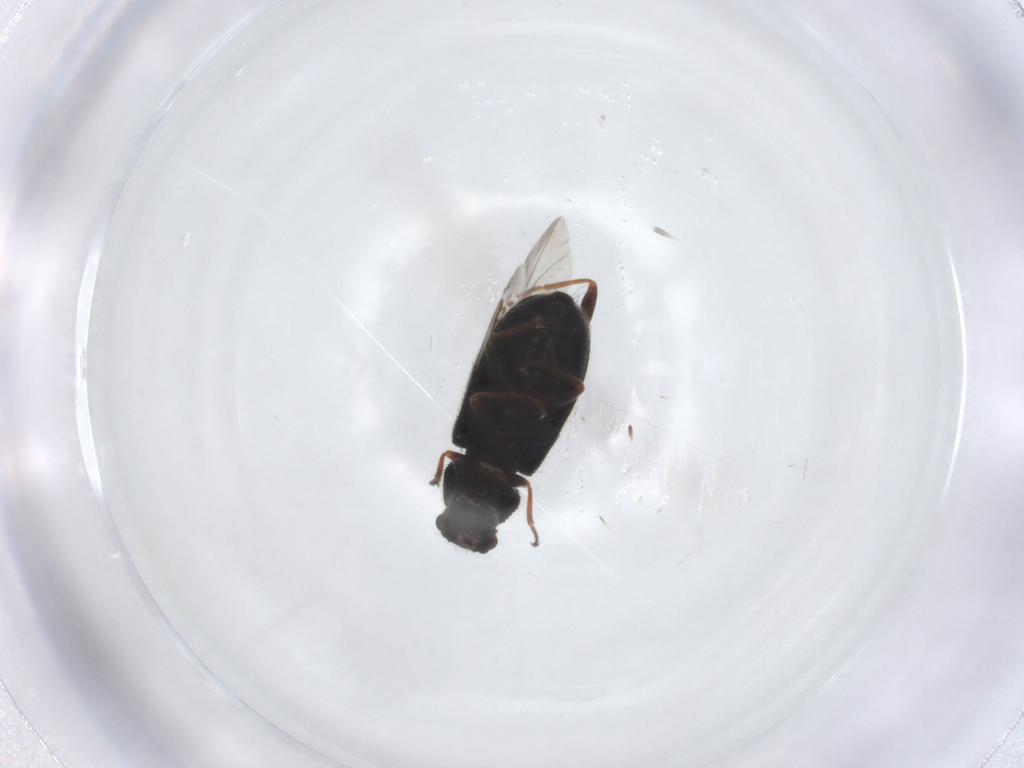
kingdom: Animalia
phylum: Arthropoda
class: Insecta
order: Coleoptera
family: Melyridae
